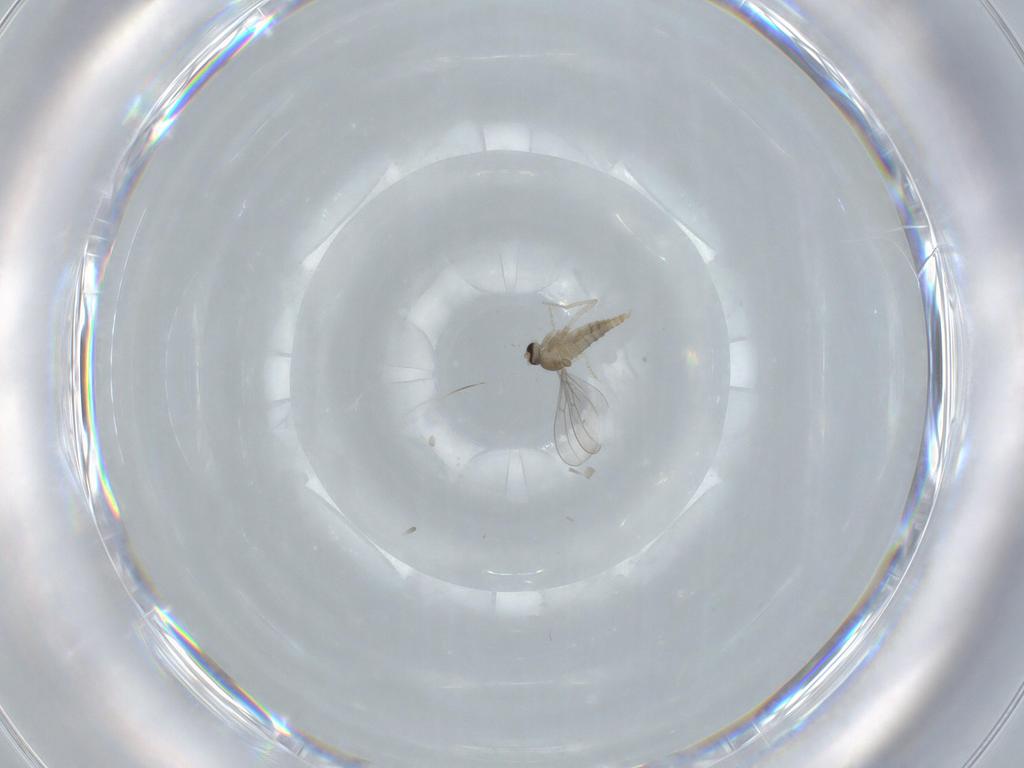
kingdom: Animalia
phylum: Arthropoda
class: Insecta
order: Diptera
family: Cecidomyiidae
